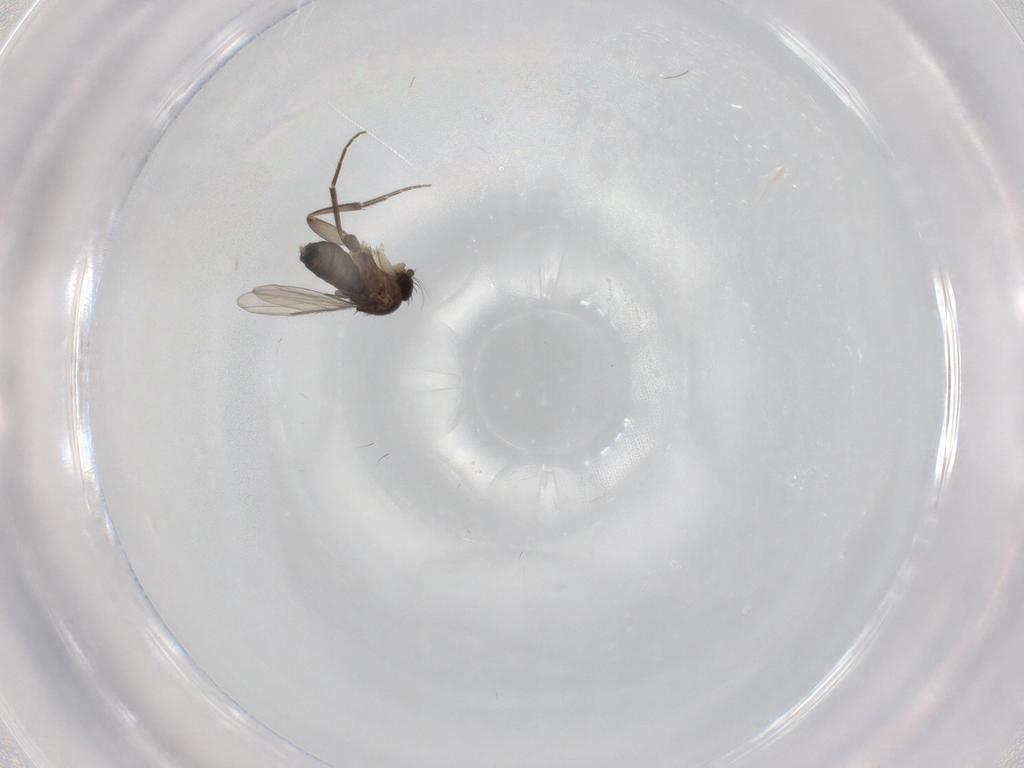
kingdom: Animalia
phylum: Arthropoda
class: Insecta
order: Diptera
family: Phoridae
